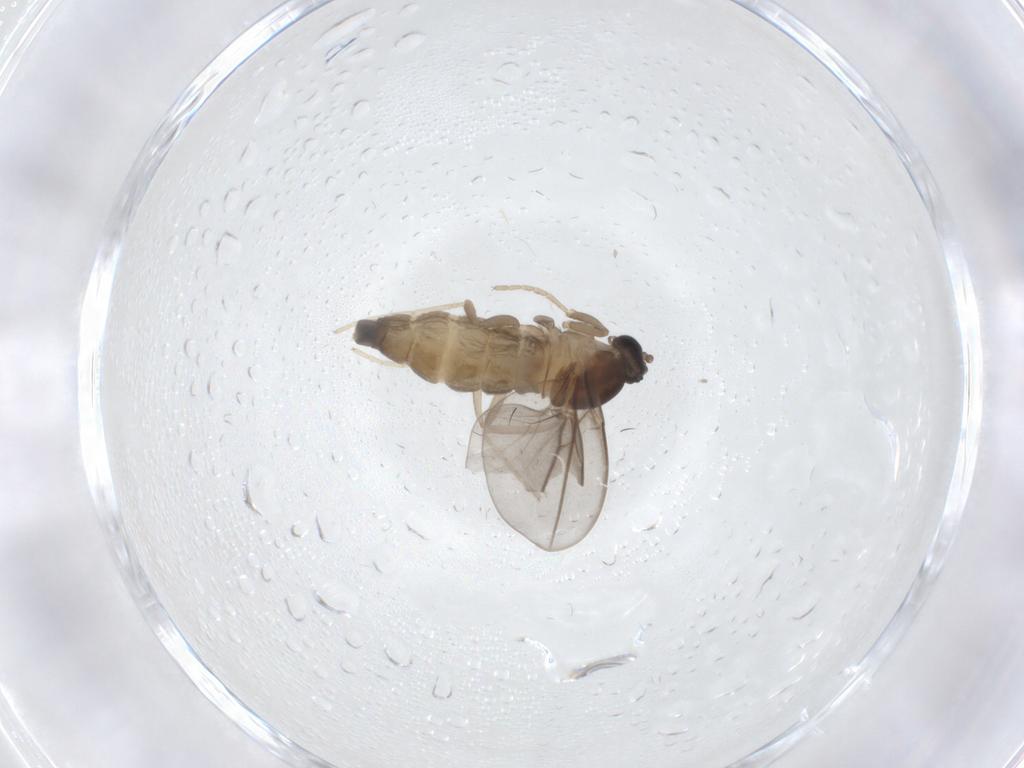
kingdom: Animalia
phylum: Arthropoda
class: Insecta
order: Diptera
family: Cecidomyiidae
